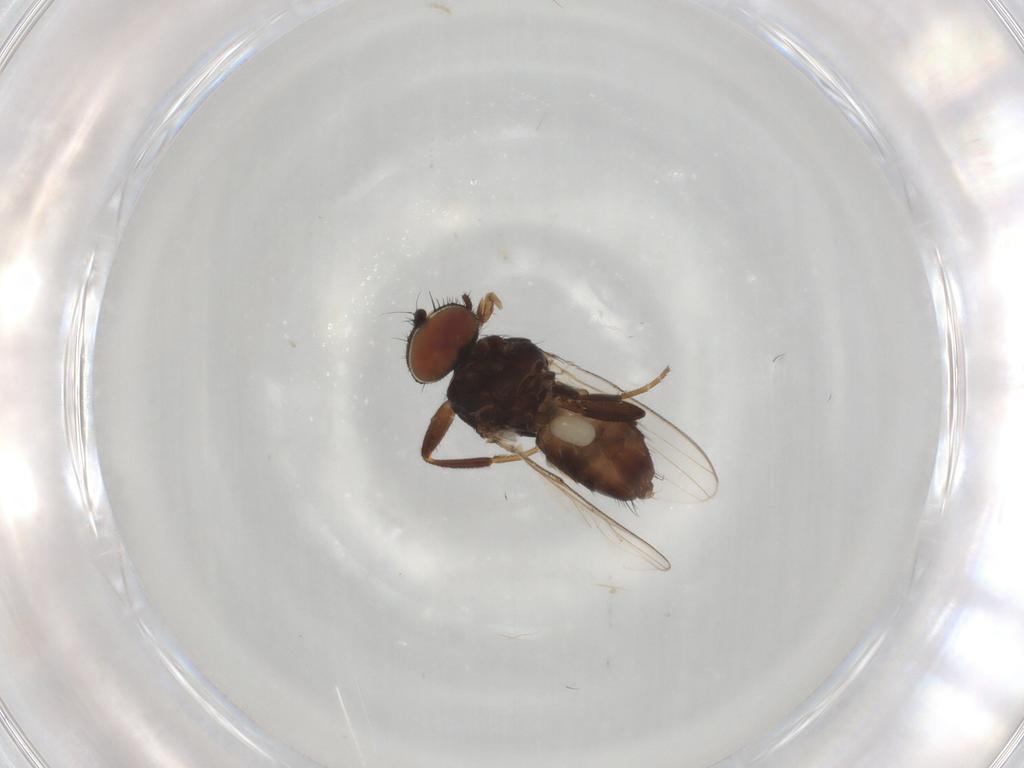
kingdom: Animalia
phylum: Arthropoda
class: Insecta
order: Diptera
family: Milichiidae
